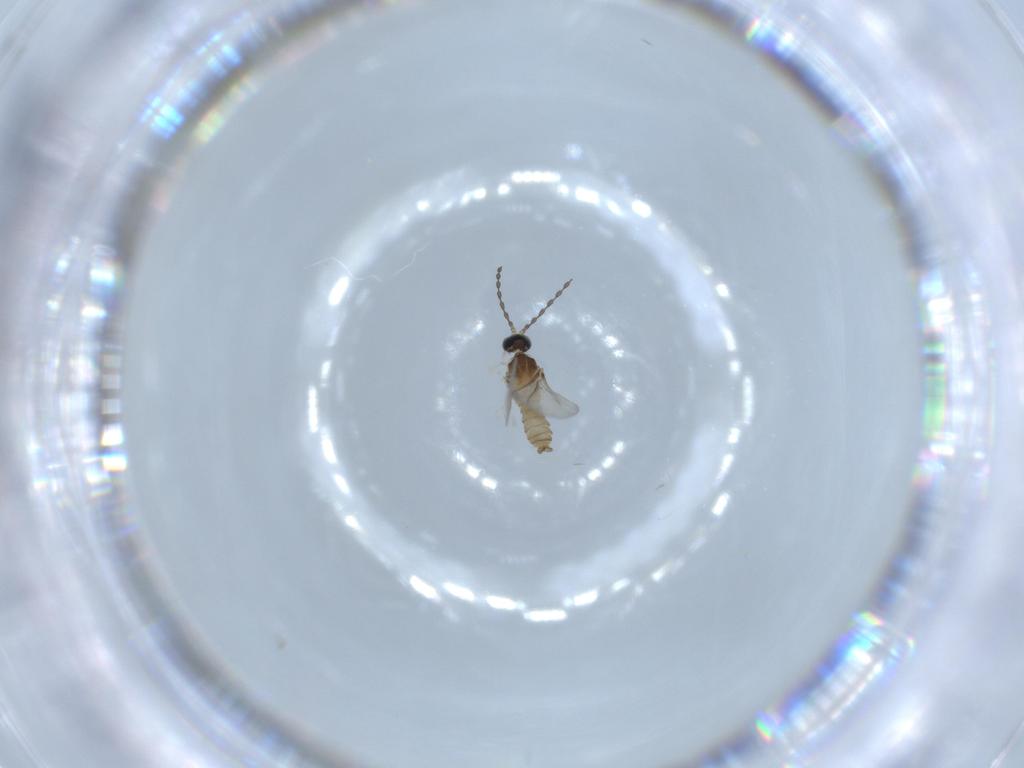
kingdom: Animalia
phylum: Arthropoda
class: Insecta
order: Diptera
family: Cecidomyiidae
